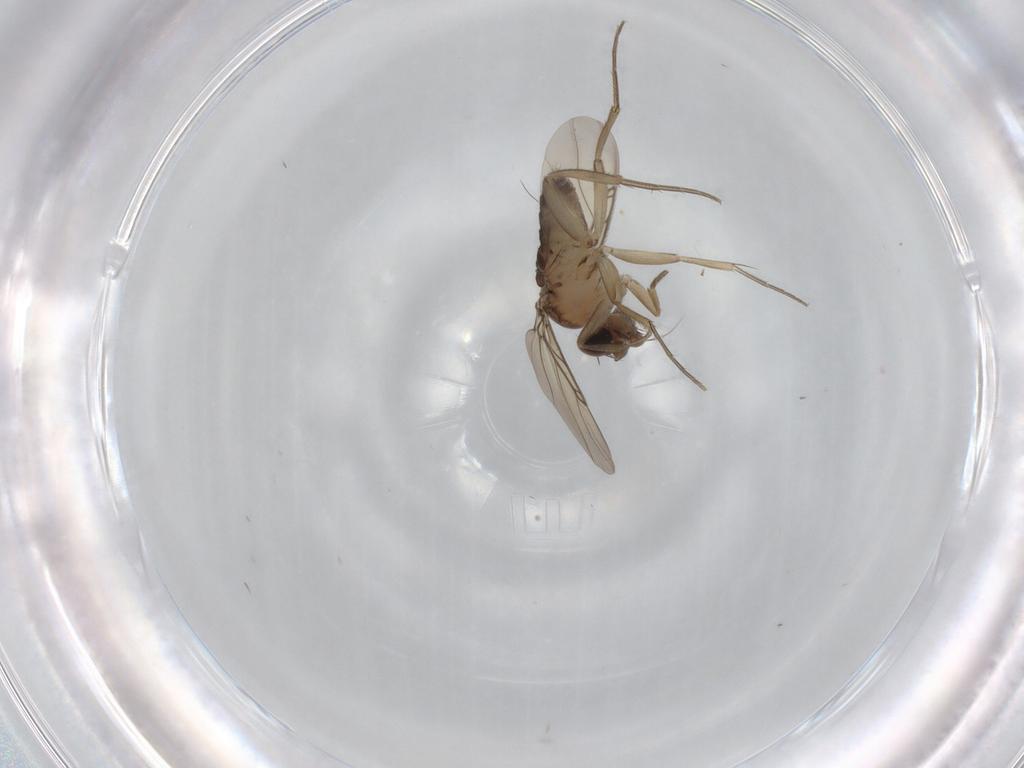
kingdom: Animalia
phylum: Arthropoda
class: Insecta
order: Diptera
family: Phoridae
